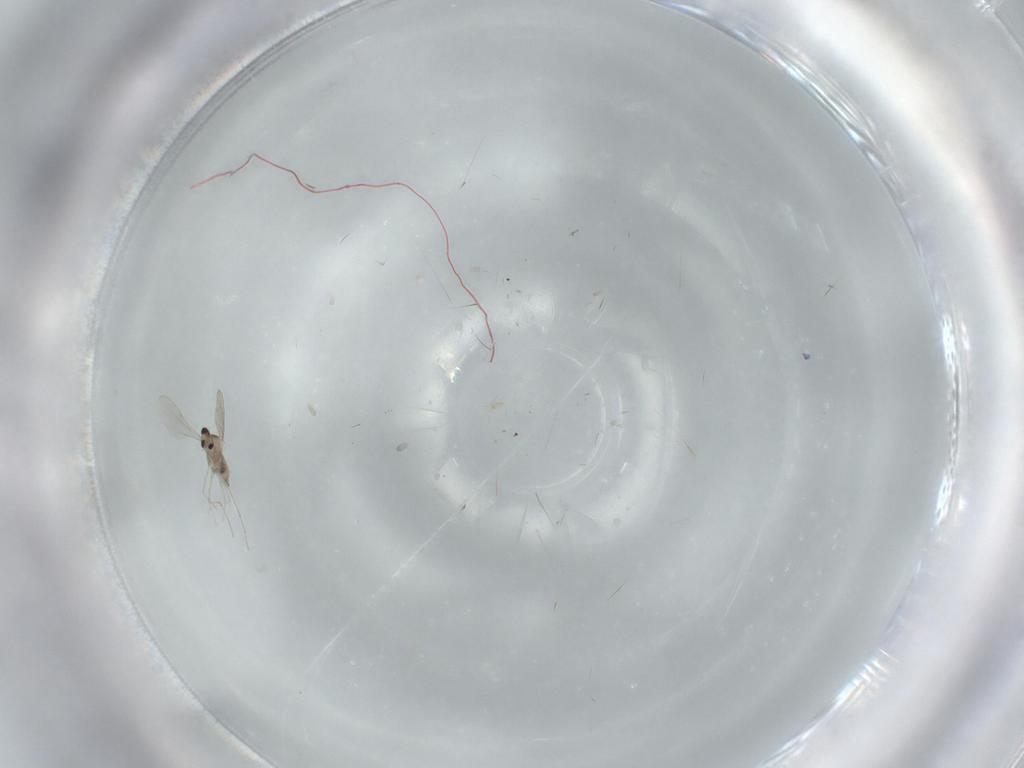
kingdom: Animalia
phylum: Arthropoda
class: Insecta
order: Diptera
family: Cecidomyiidae
